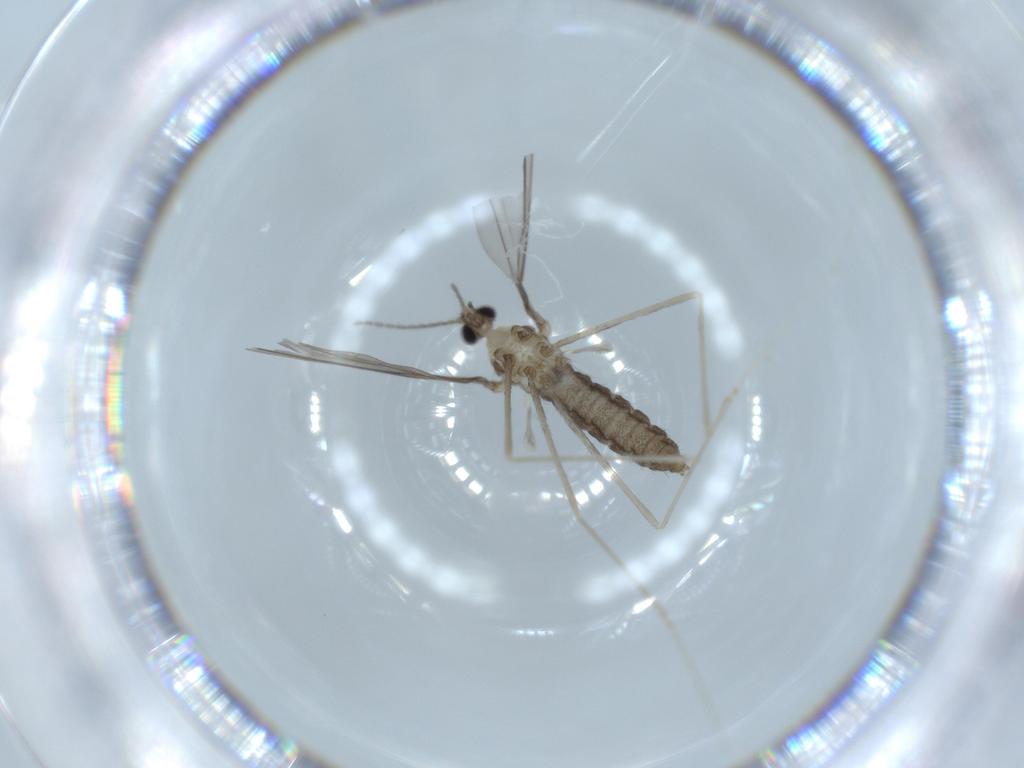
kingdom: Animalia
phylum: Arthropoda
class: Insecta
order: Diptera
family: Cecidomyiidae
